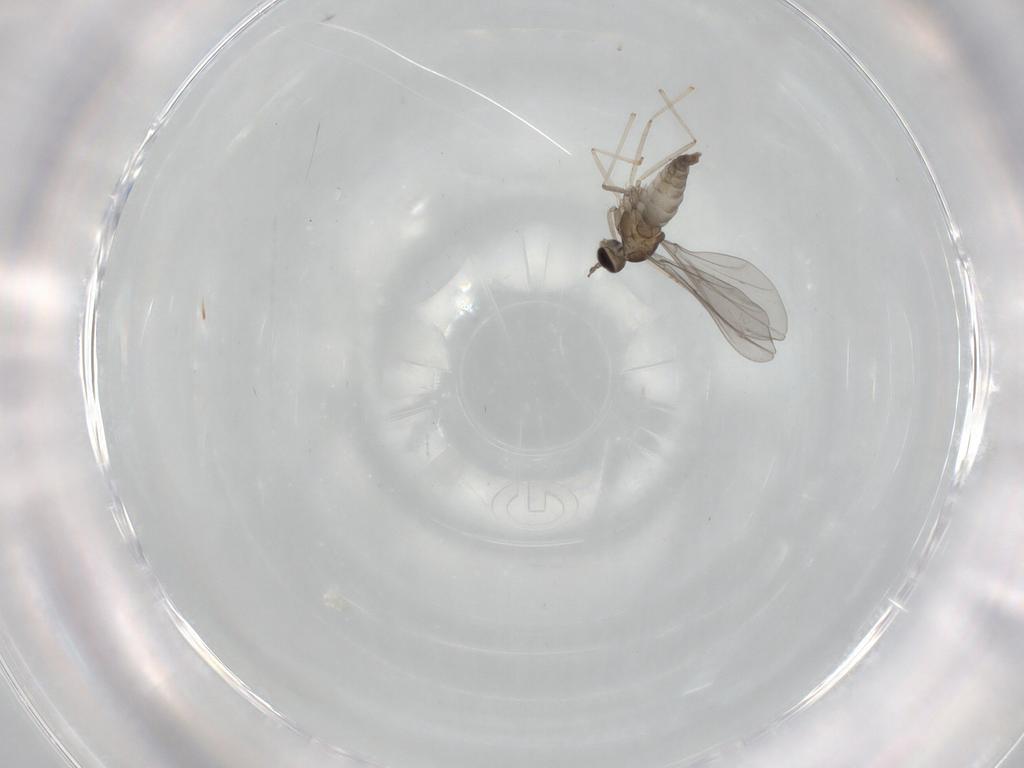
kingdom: Animalia
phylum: Arthropoda
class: Insecta
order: Diptera
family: Cecidomyiidae
